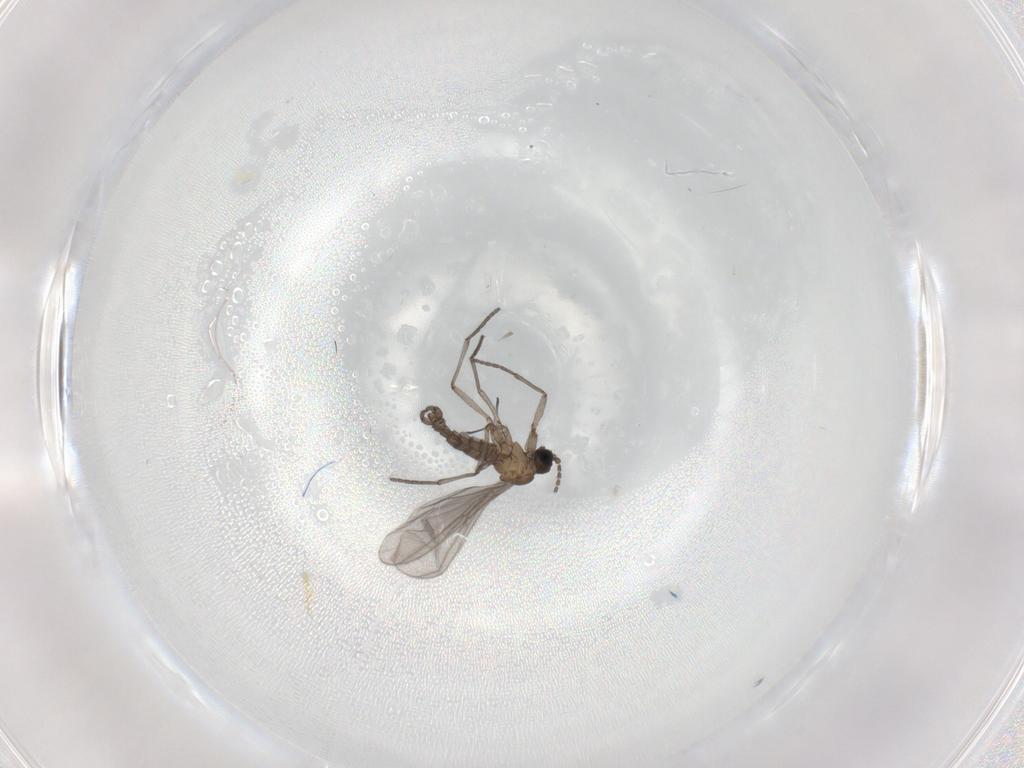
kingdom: Animalia
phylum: Arthropoda
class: Insecta
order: Diptera
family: Sciaridae
